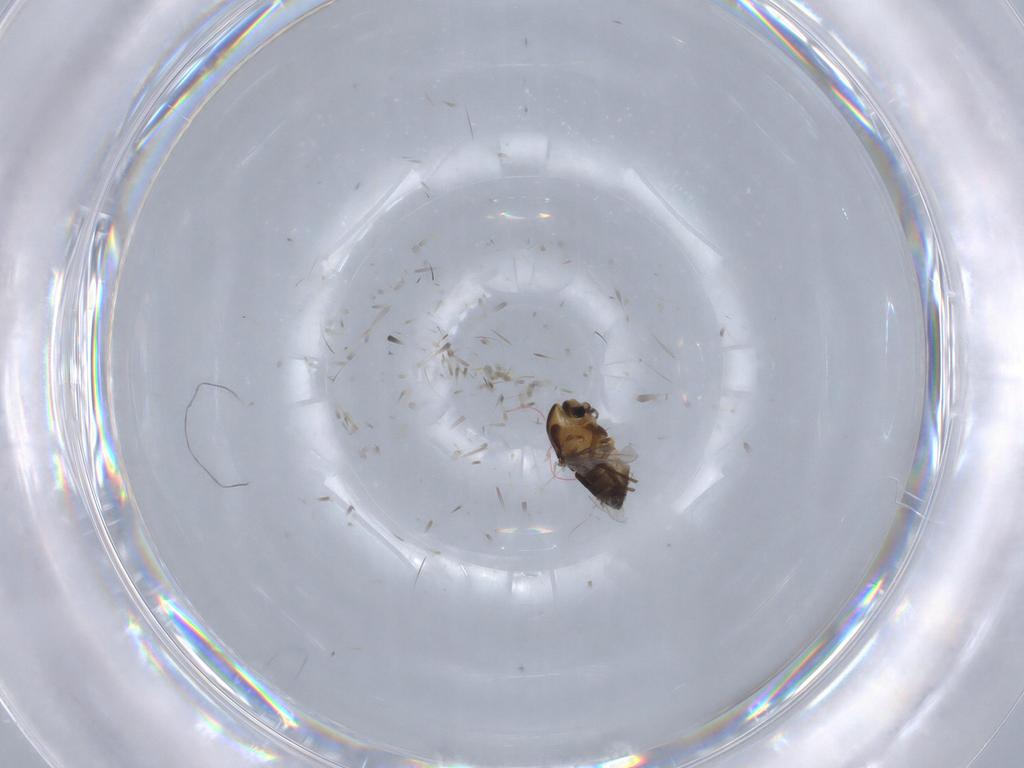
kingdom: Animalia
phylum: Arthropoda
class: Insecta
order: Diptera
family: Chironomidae
